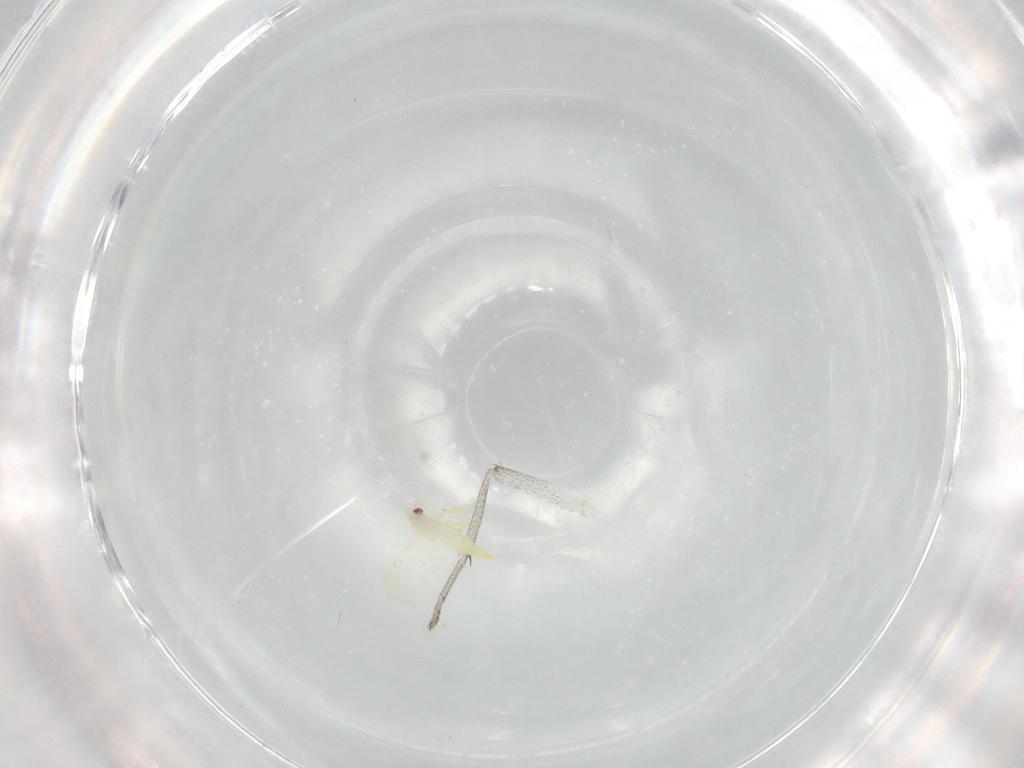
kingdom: Animalia
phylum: Arthropoda
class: Insecta
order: Hemiptera
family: Aleyrodidae
